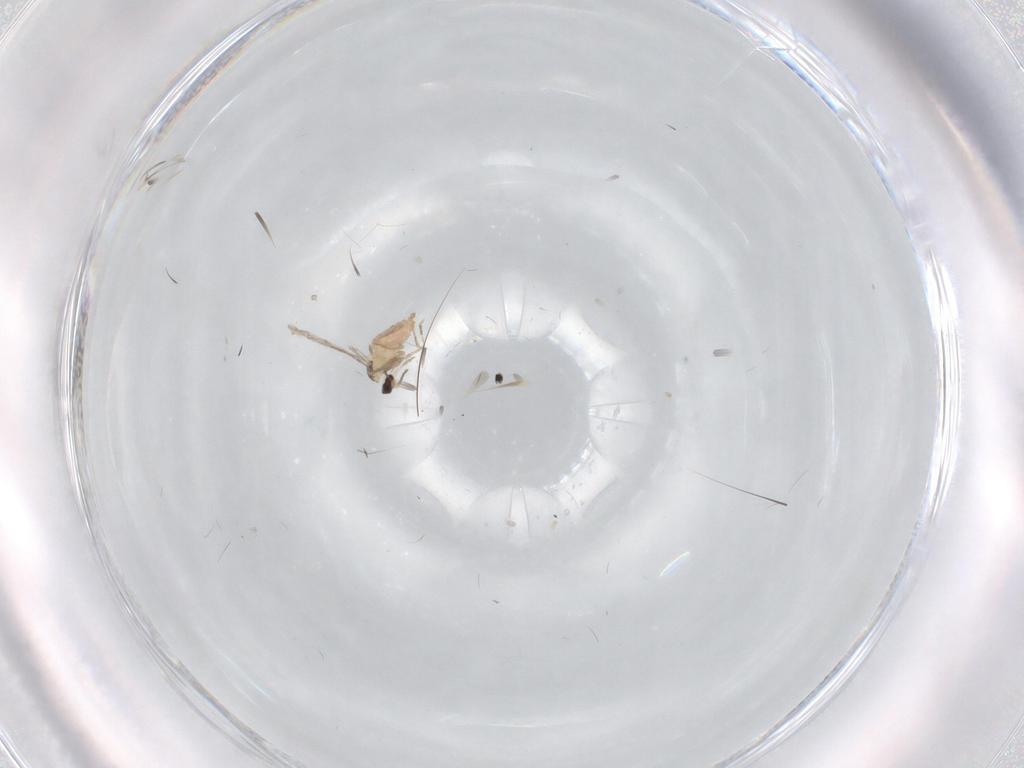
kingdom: Animalia
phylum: Arthropoda
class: Insecta
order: Diptera
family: Cecidomyiidae
